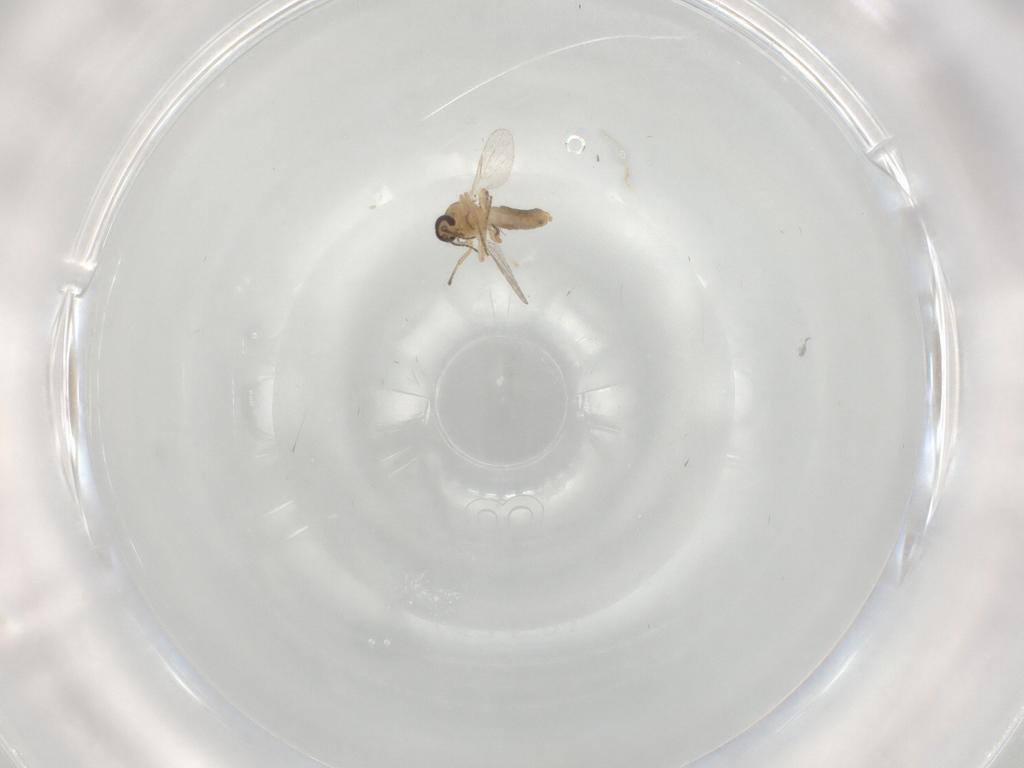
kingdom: Animalia
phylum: Arthropoda
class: Insecta
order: Diptera
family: Ceratopogonidae
